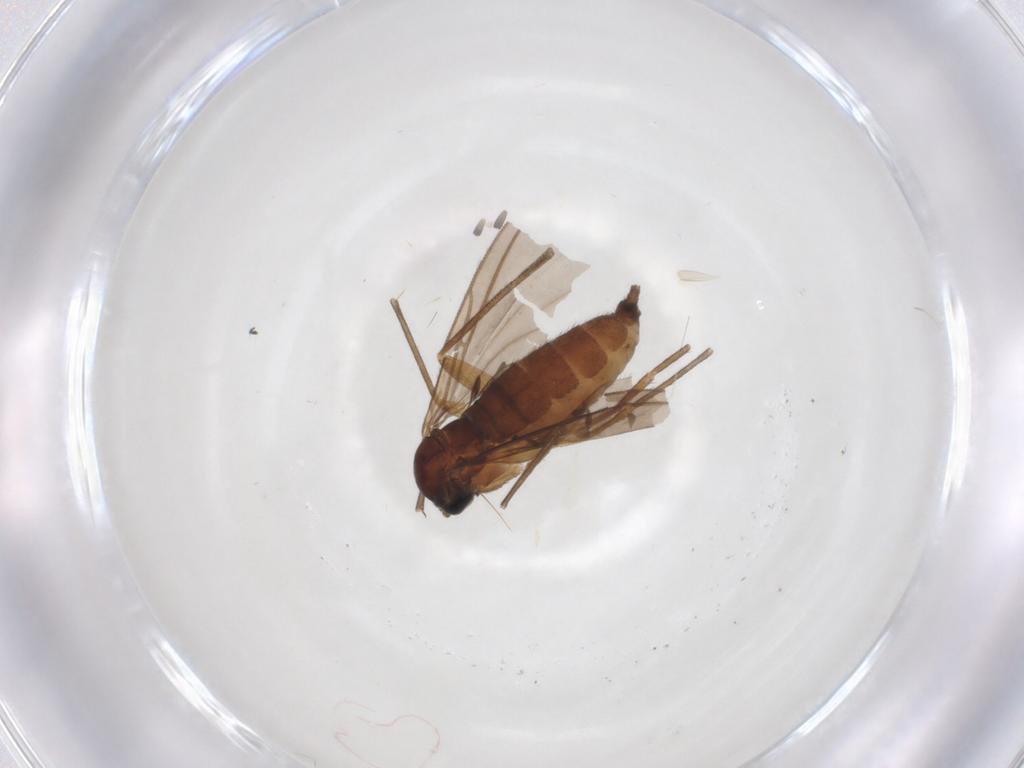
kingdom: Animalia
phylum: Arthropoda
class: Insecta
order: Diptera
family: Sciaridae
